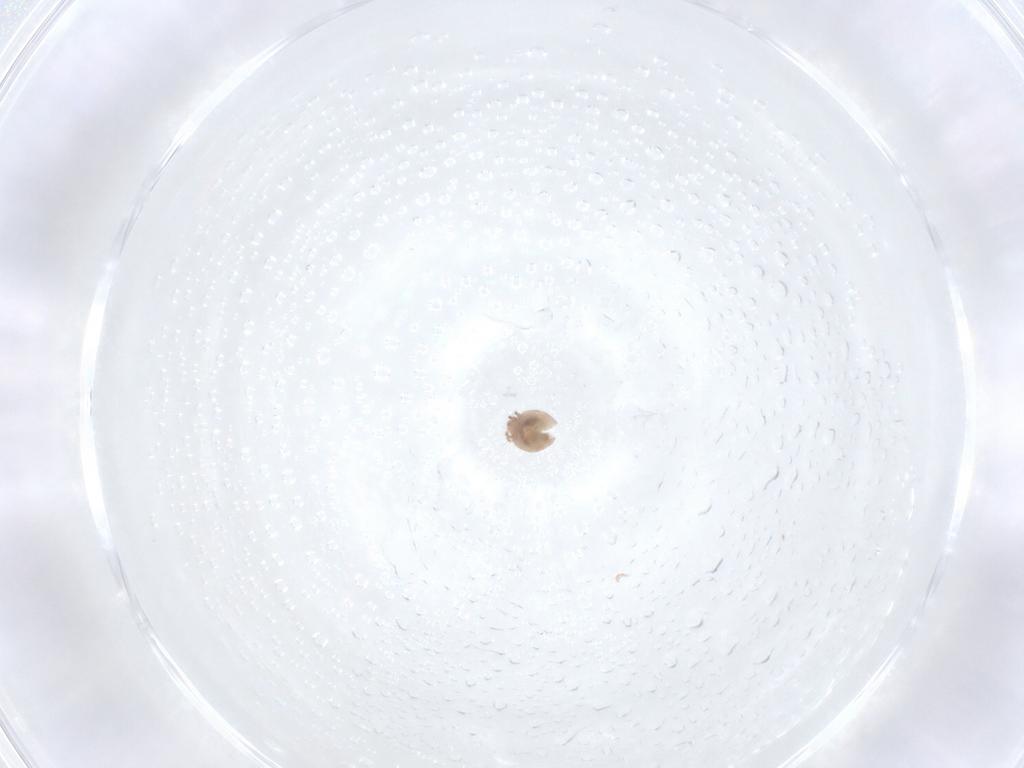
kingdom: Animalia
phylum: Arthropoda
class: Arachnida
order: Sarcoptiformes
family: Galumnidae
